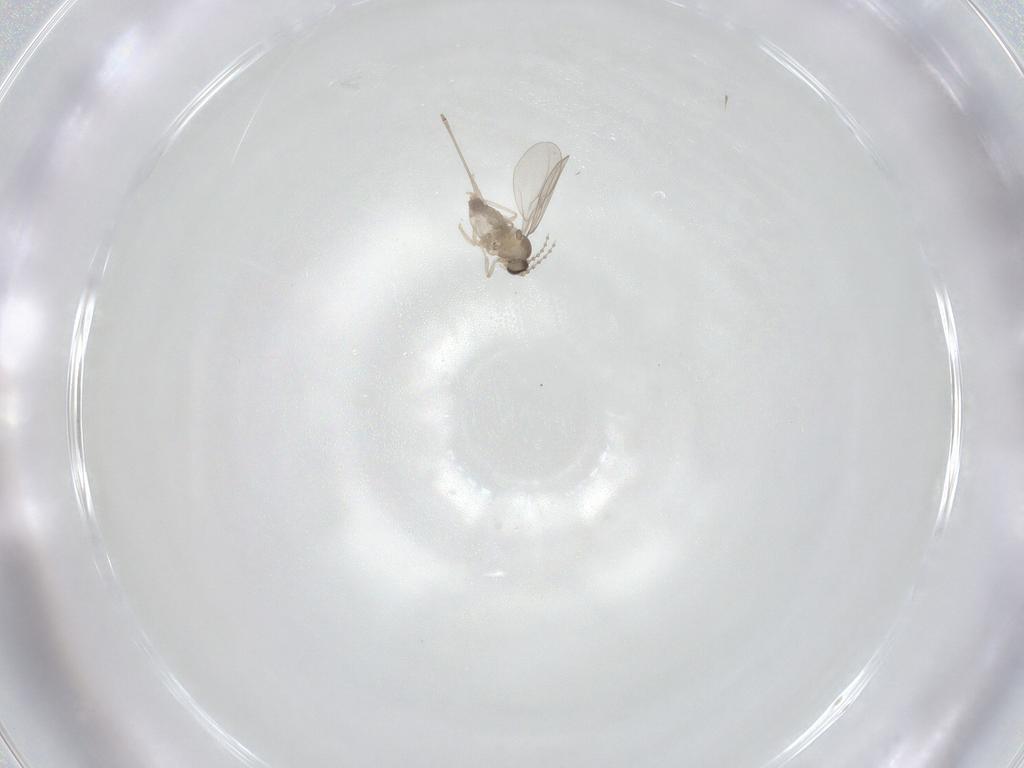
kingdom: Animalia
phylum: Arthropoda
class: Insecta
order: Diptera
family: Cecidomyiidae
